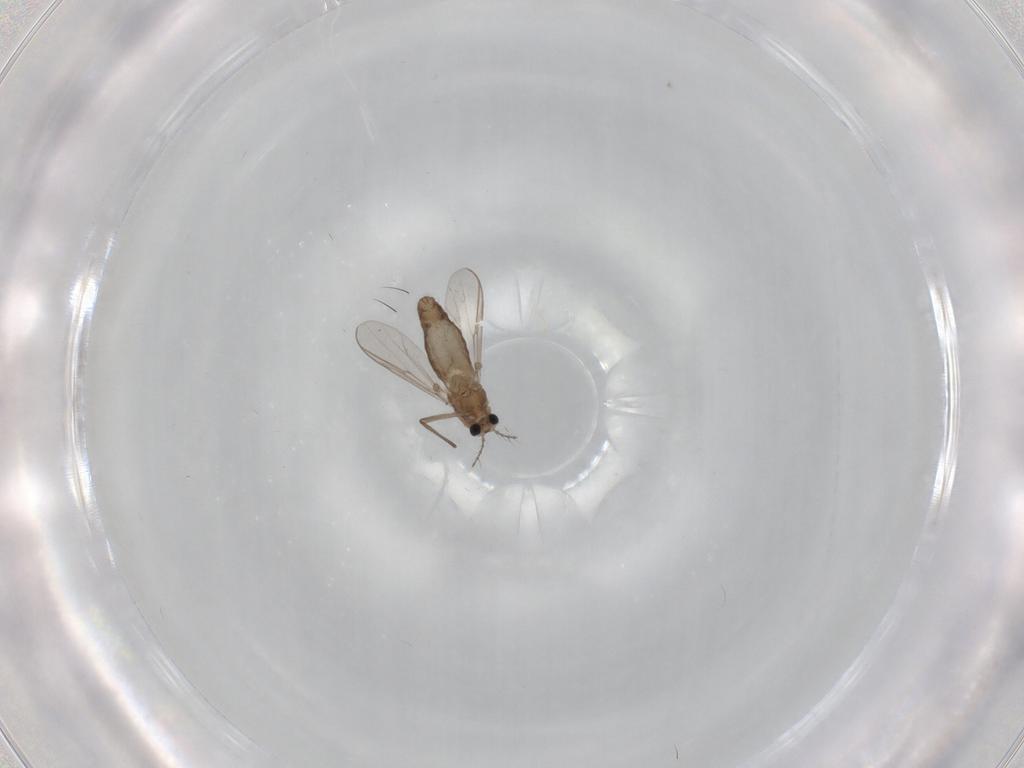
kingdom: Animalia
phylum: Arthropoda
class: Insecta
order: Diptera
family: Chironomidae
